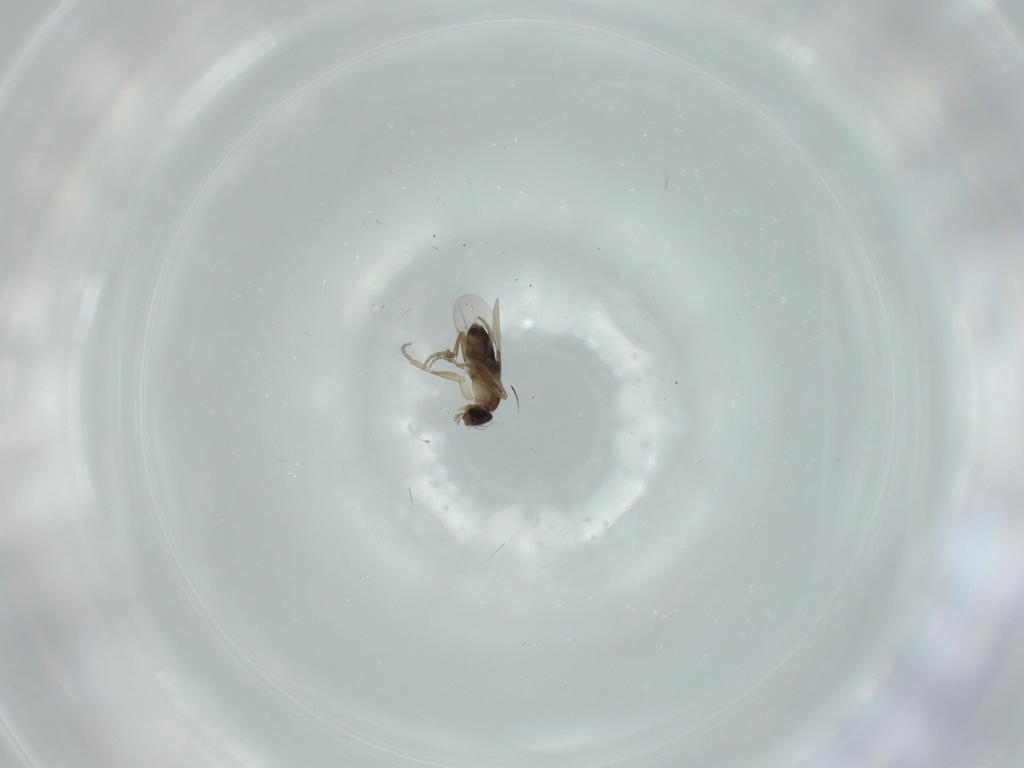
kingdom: Animalia
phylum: Arthropoda
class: Insecta
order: Diptera
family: Phoridae
